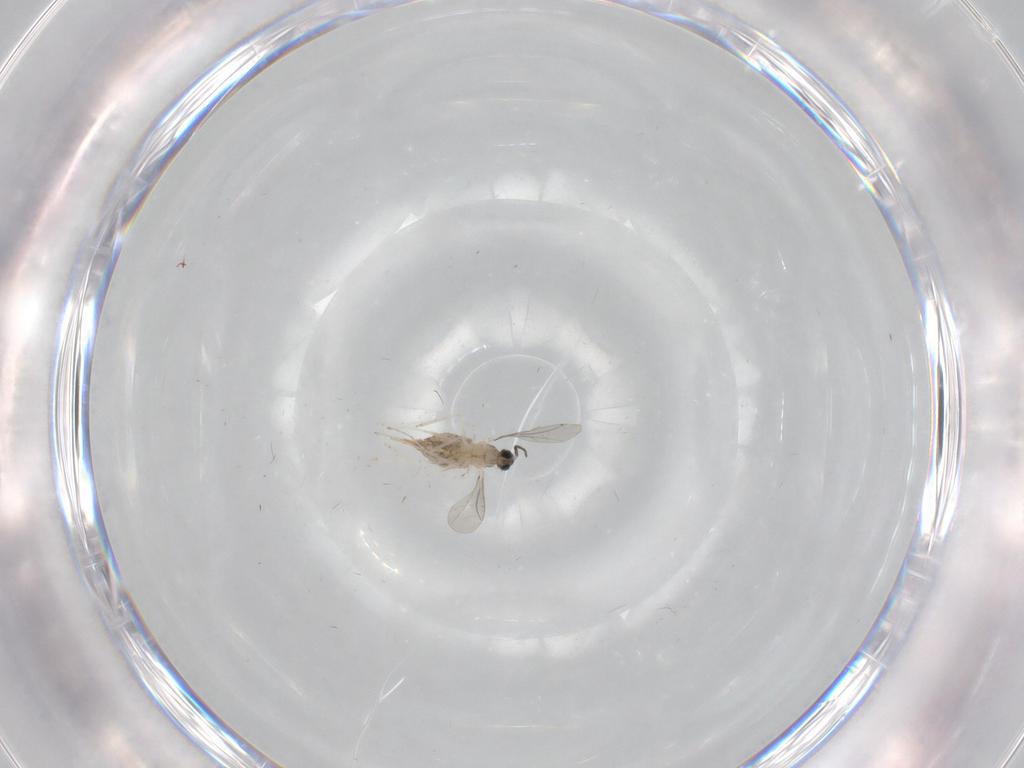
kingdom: Animalia
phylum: Arthropoda
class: Insecta
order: Diptera
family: Cecidomyiidae
